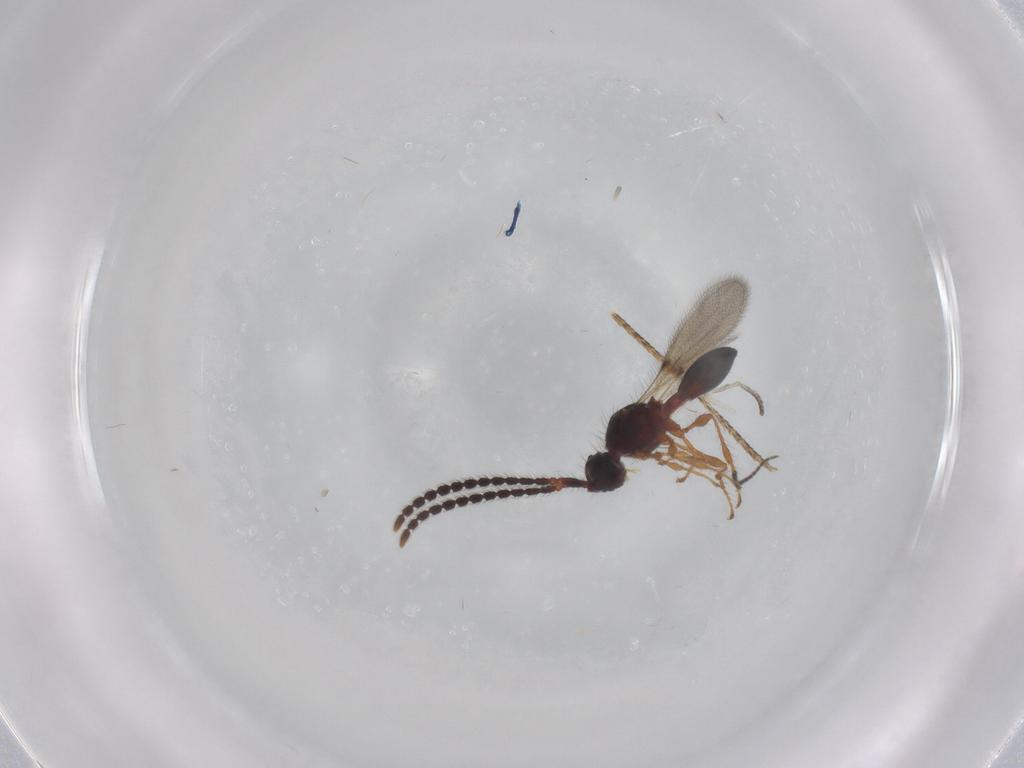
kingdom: Animalia
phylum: Arthropoda
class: Insecta
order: Hymenoptera
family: Diapriidae
